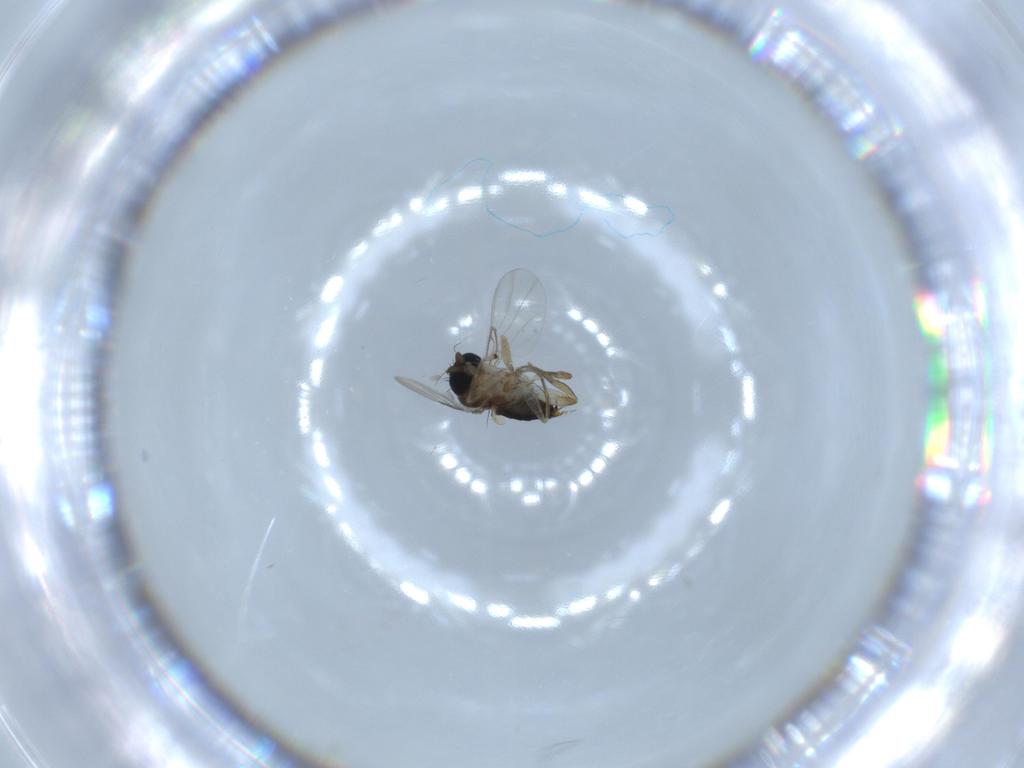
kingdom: Animalia
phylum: Arthropoda
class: Insecta
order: Diptera
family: Phoridae
